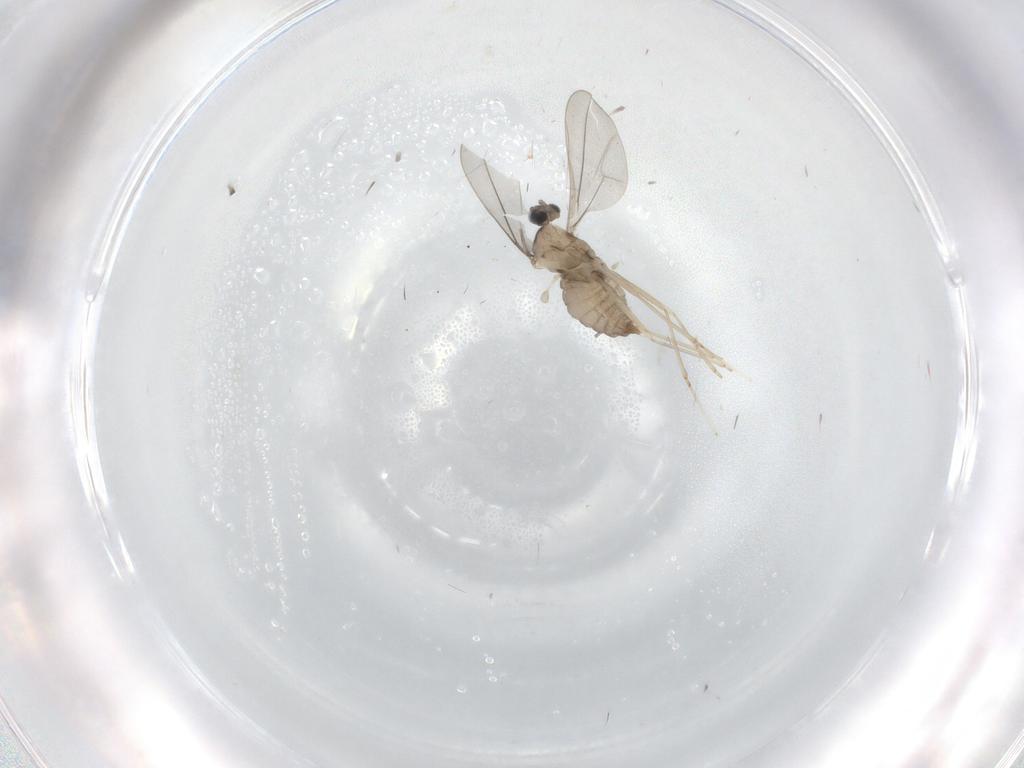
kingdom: Animalia
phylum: Arthropoda
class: Insecta
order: Diptera
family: Cecidomyiidae
